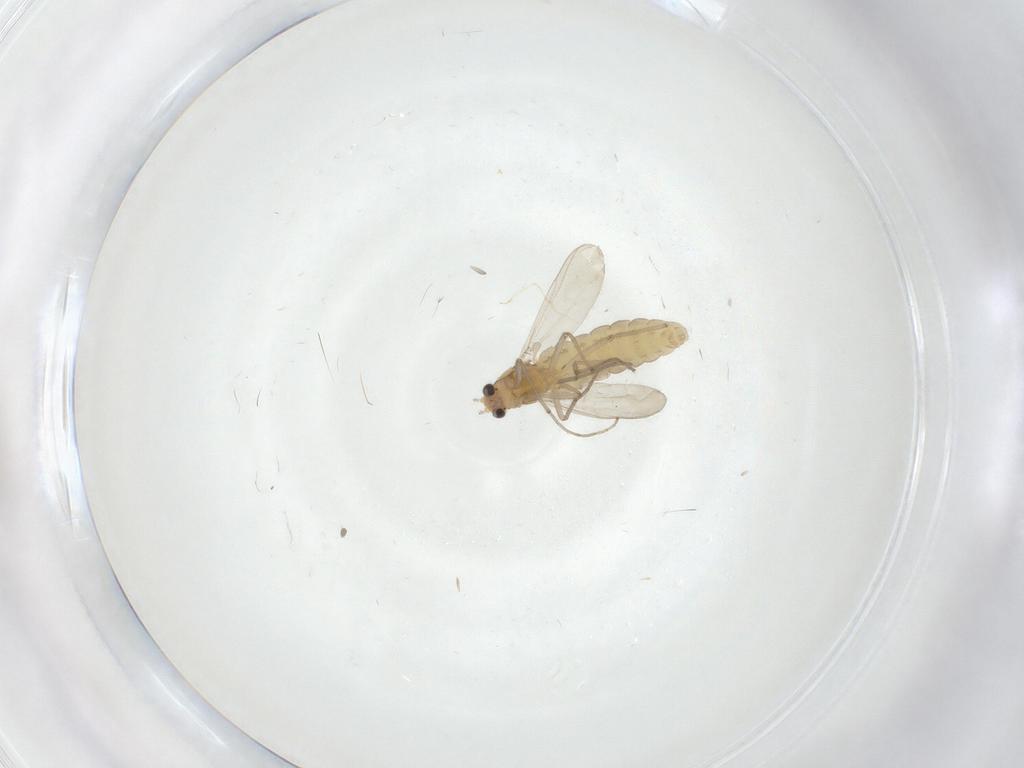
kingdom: Animalia
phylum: Arthropoda
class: Insecta
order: Diptera
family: Chironomidae
